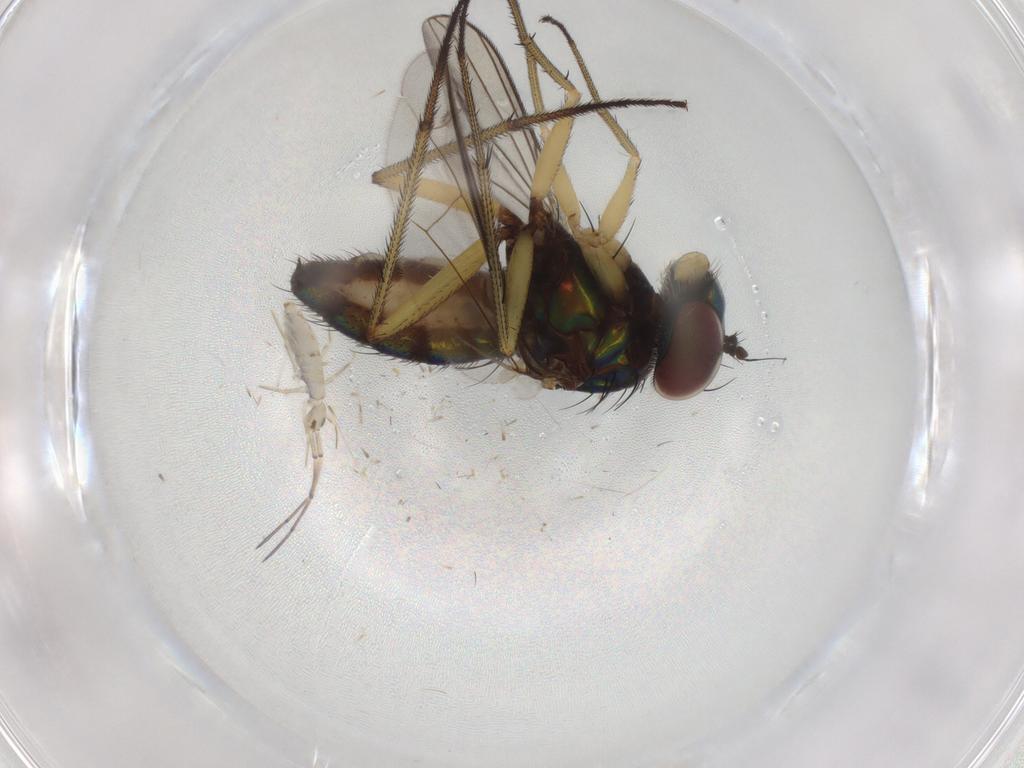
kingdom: Animalia
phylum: Arthropoda
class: Insecta
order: Diptera
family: Dolichopodidae
